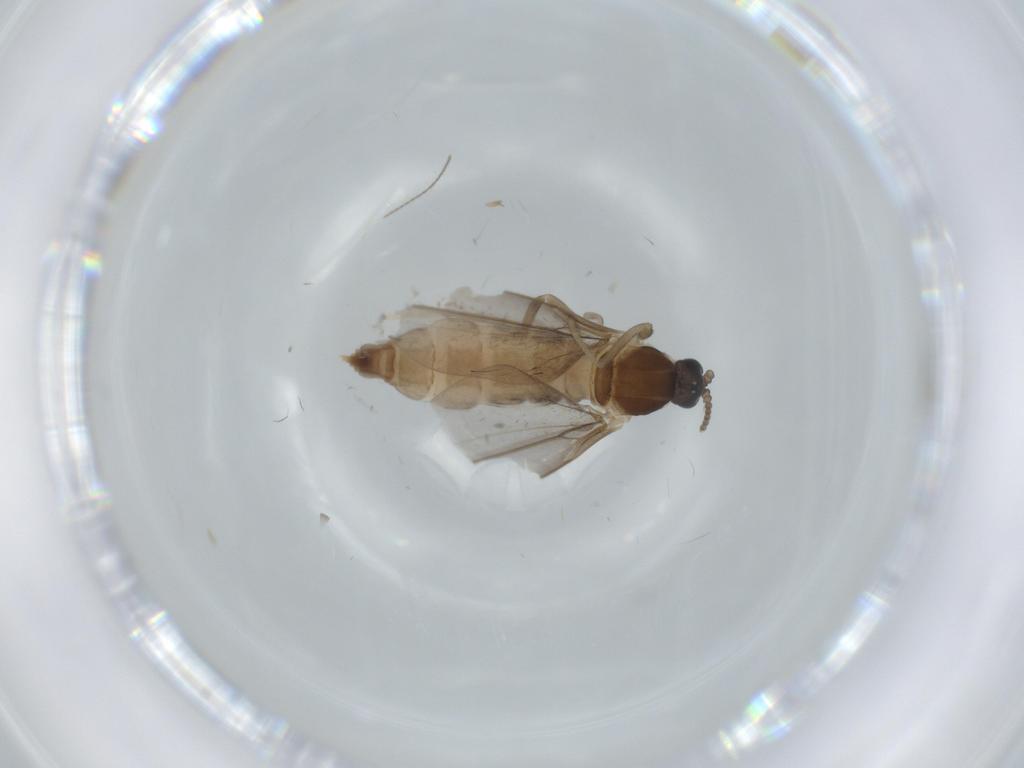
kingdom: Animalia
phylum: Arthropoda
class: Insecta
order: Diptera
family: Cecidomyiidae
